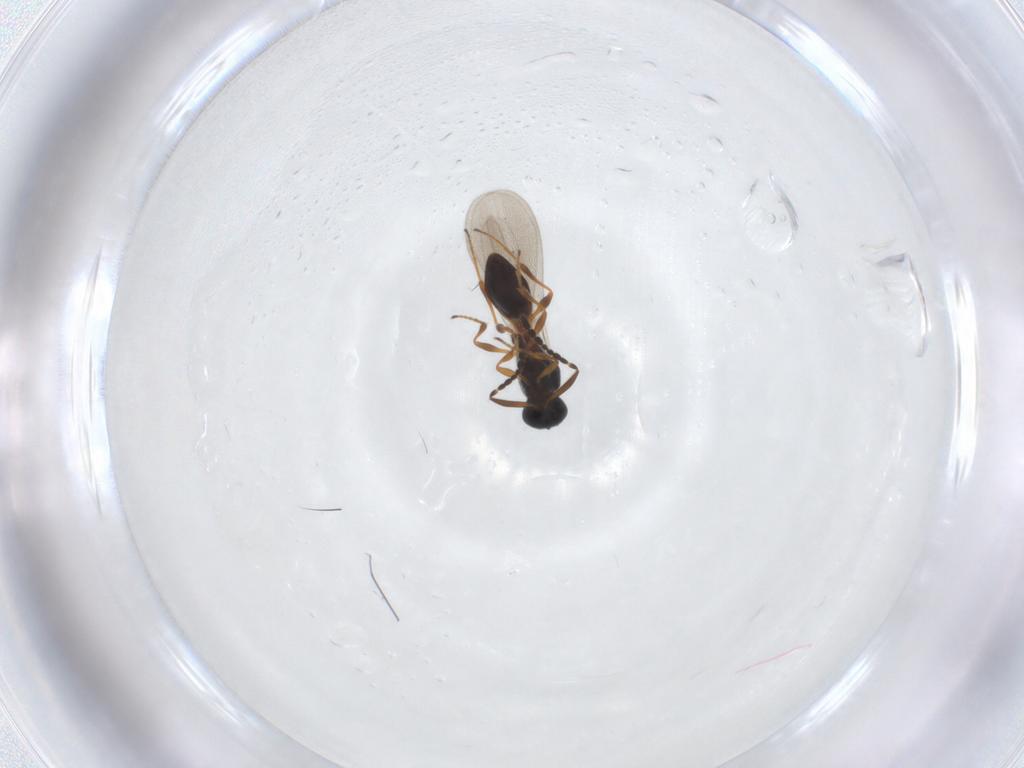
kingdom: Animalia
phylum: Arthropoda
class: Insecta
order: Hymenoptera
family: Platygastridae
